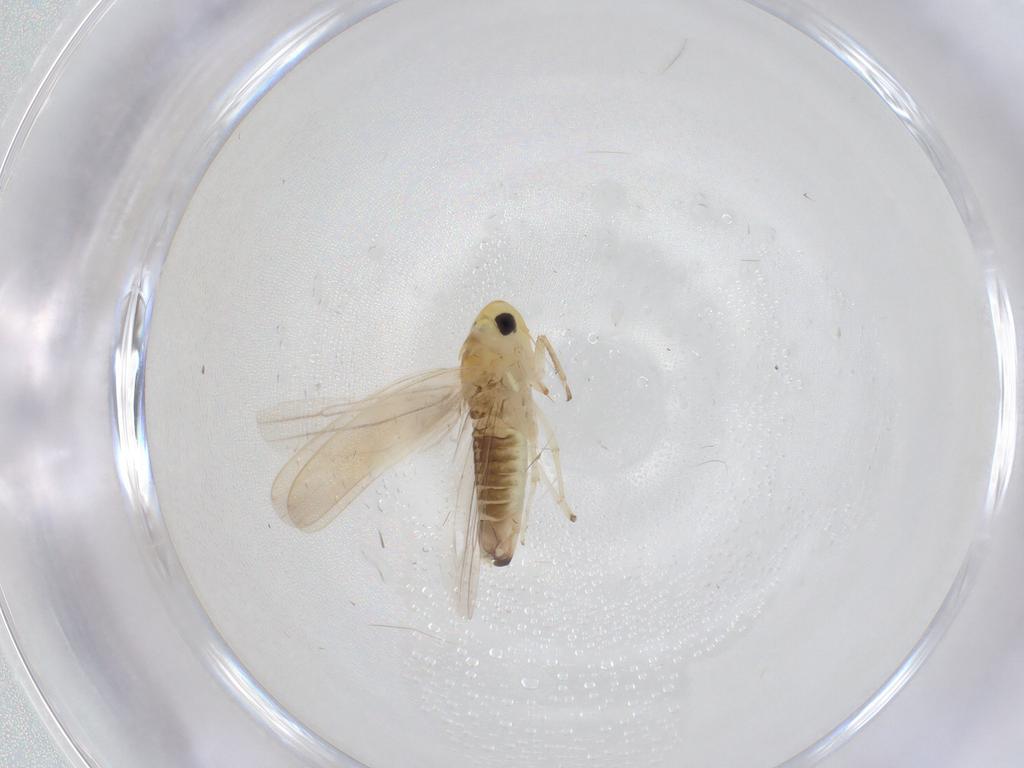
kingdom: Animalia
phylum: Arthropoda
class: Insecta
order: Hemiptera
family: Cicadellidae
